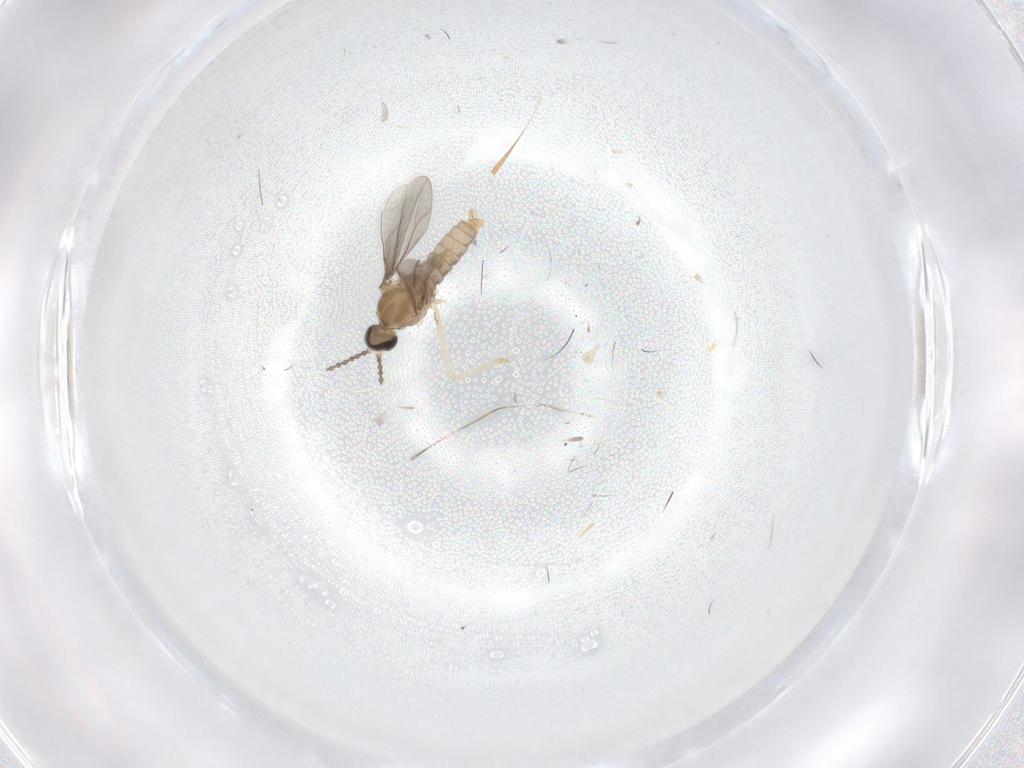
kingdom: Animalia
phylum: Arthropoda
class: Insecta
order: Diptera
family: Cecidomyiidae
